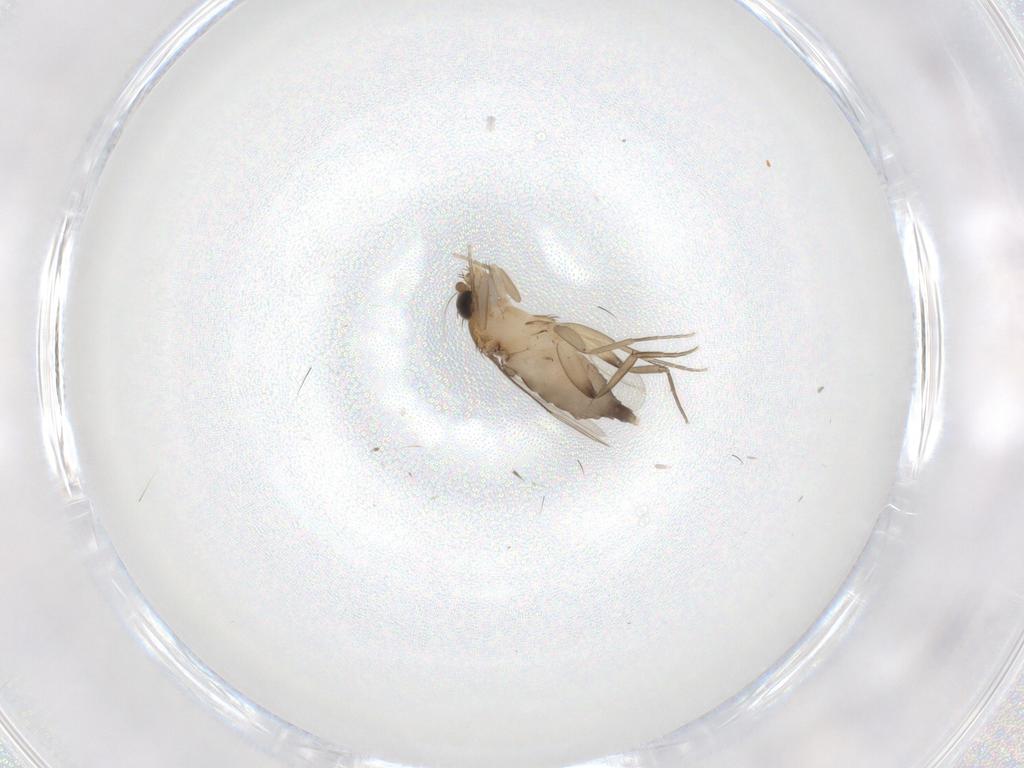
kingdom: Animalia
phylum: Arthropoda
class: Insecta
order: Diptera
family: Phoridae
